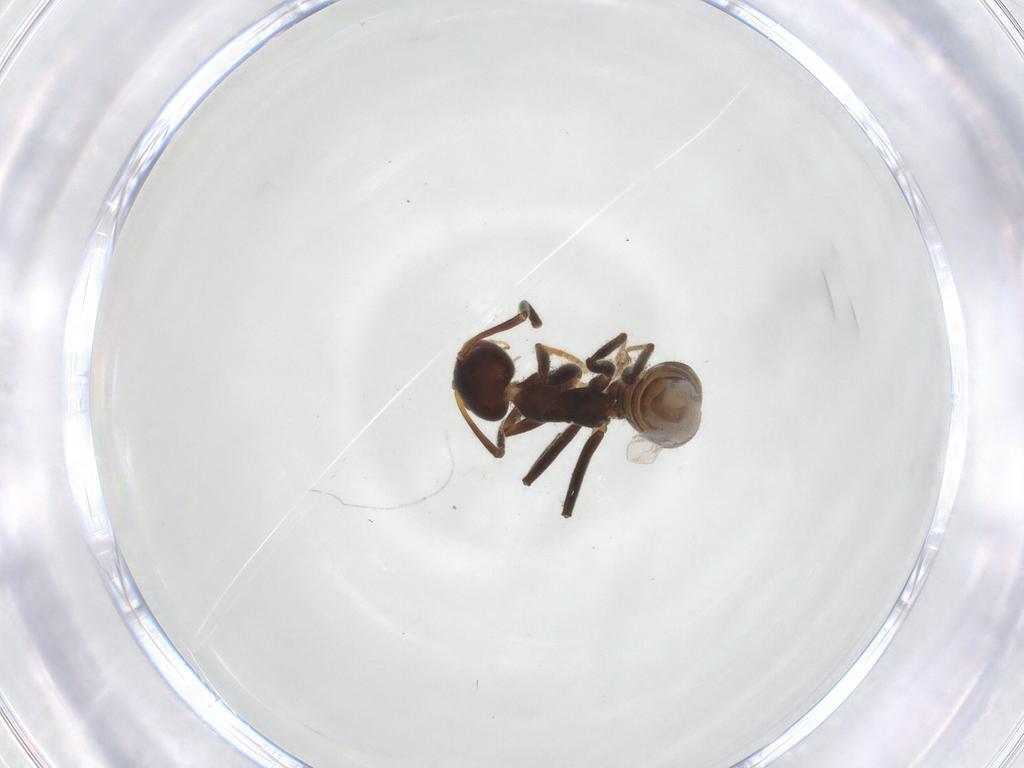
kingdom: Animalia
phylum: Arthropoda
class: Insecta
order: Hymenoptera
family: Formicidae
